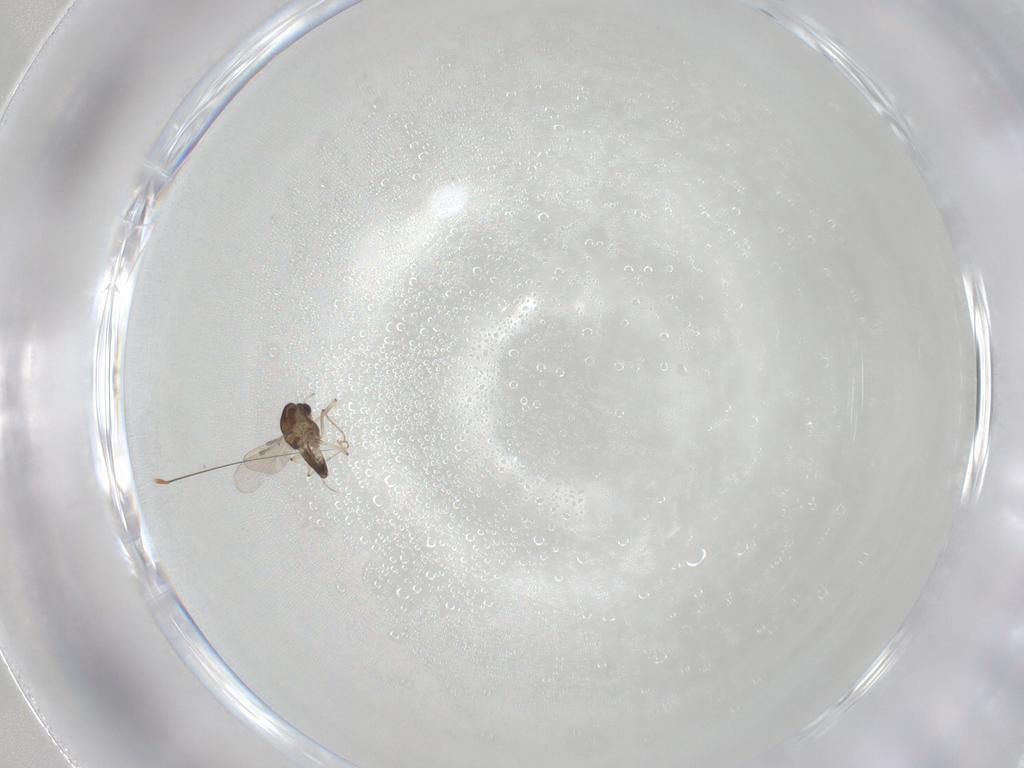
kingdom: Animalia
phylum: Arthropoda
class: Insecta
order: Diptera
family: Chironomidae
